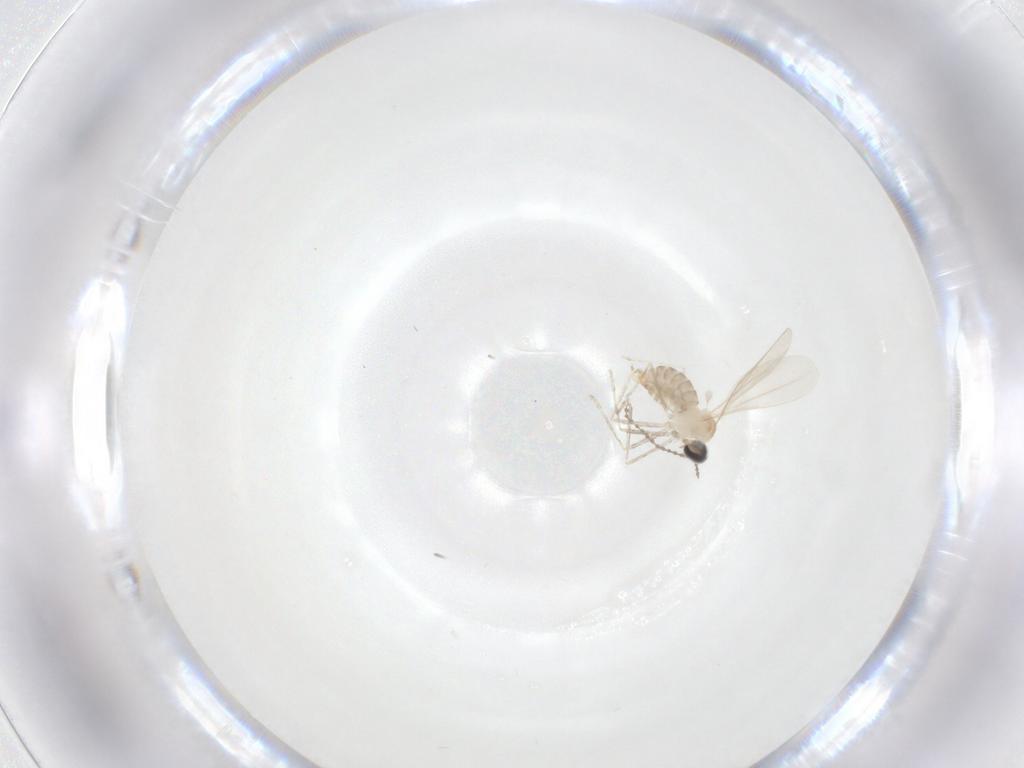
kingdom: Animalia
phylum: Arthropoda
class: Insecta
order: Diptera
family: Cecidomyiidae
